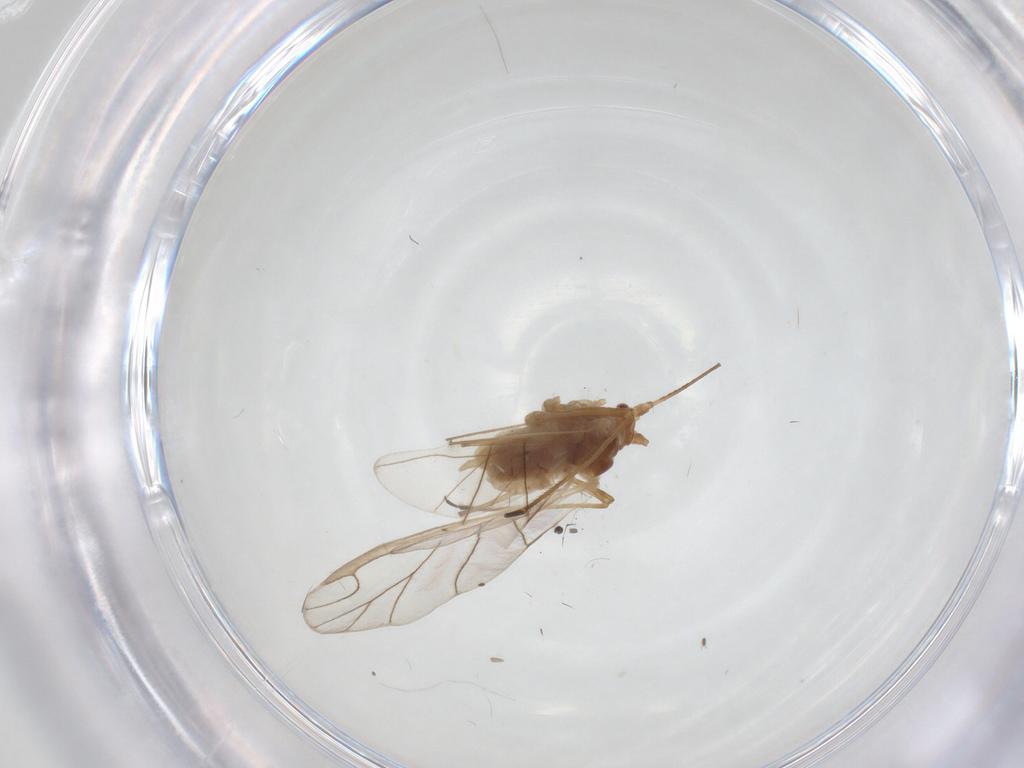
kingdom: Animalia
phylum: Arthropoda
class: Insecta
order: Hemiptera
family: Aphididae
